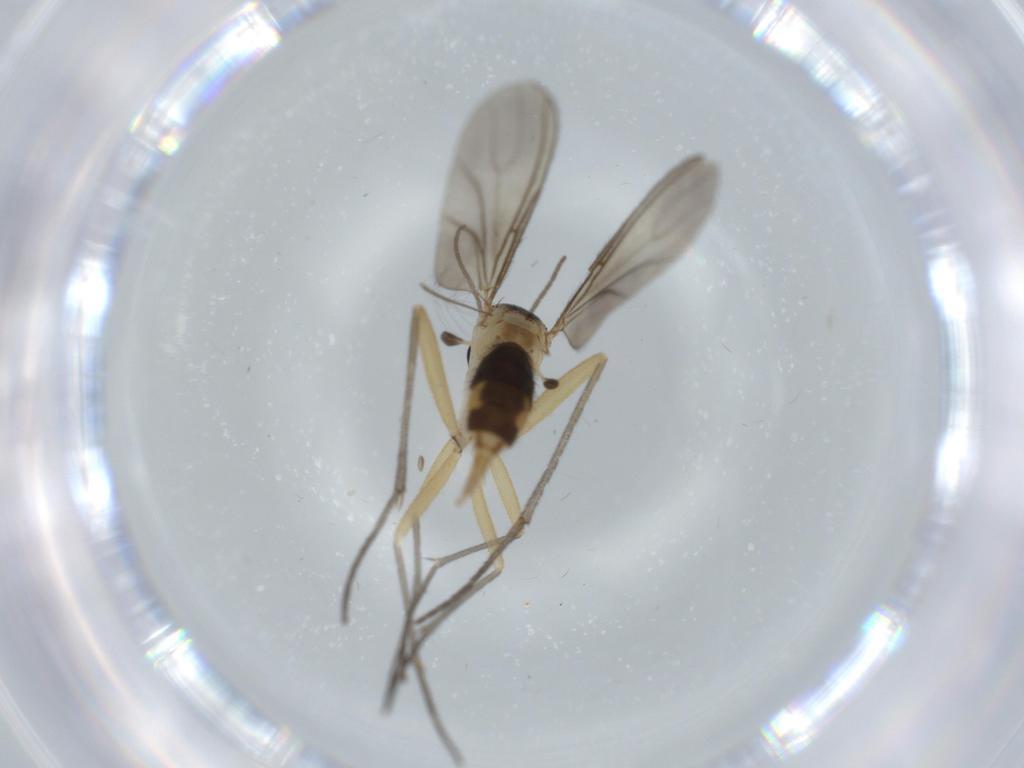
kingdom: Animalia
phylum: Arthropoda
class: Insecta
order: Diptera
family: Sciaridae
